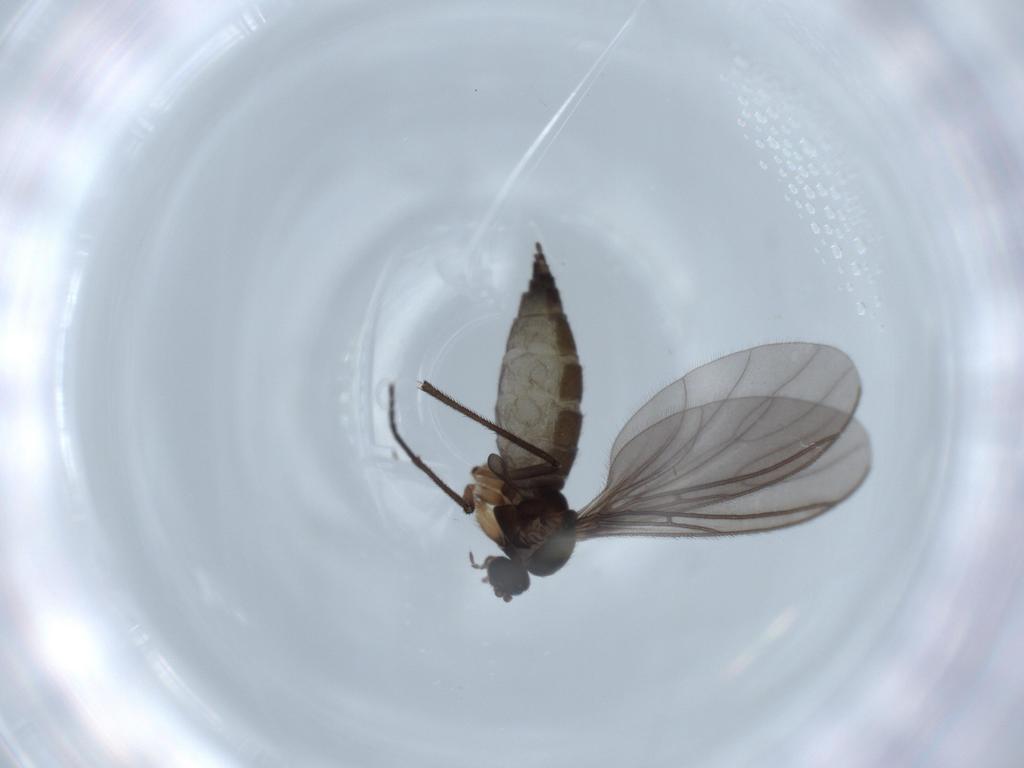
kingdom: Animalia
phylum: Arthropoda
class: Insecta
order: Diptera
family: Sciaridae
